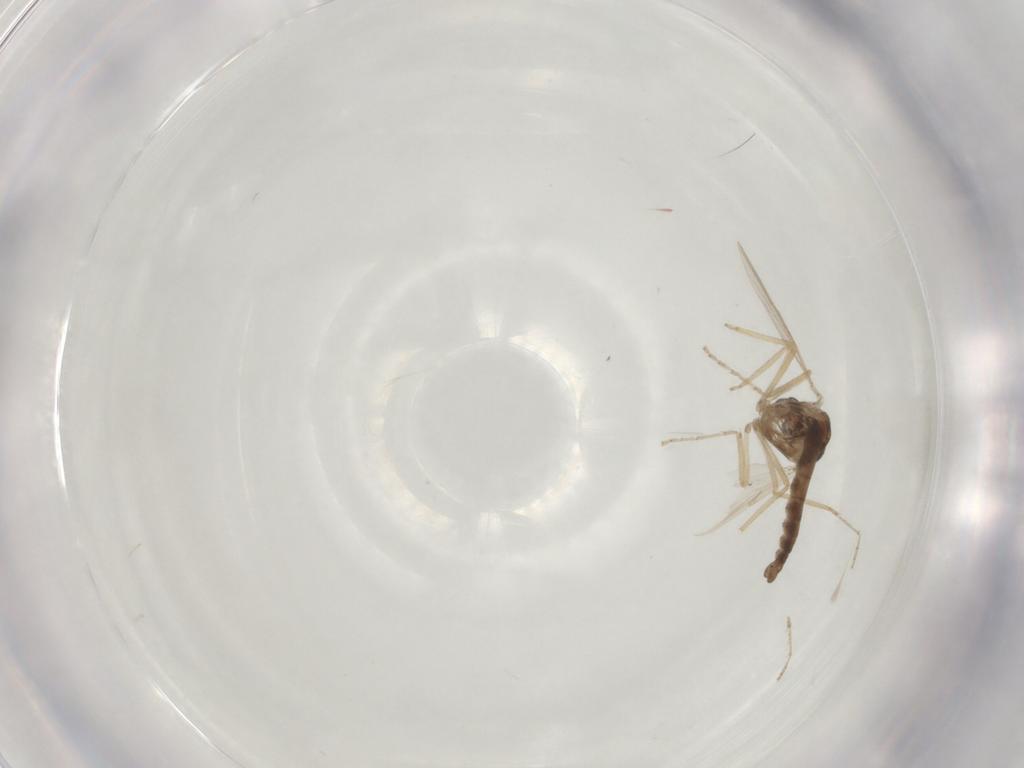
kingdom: Animalia
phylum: Arthropoda
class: Insecta
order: Diptera
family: Ceratopogonidae
